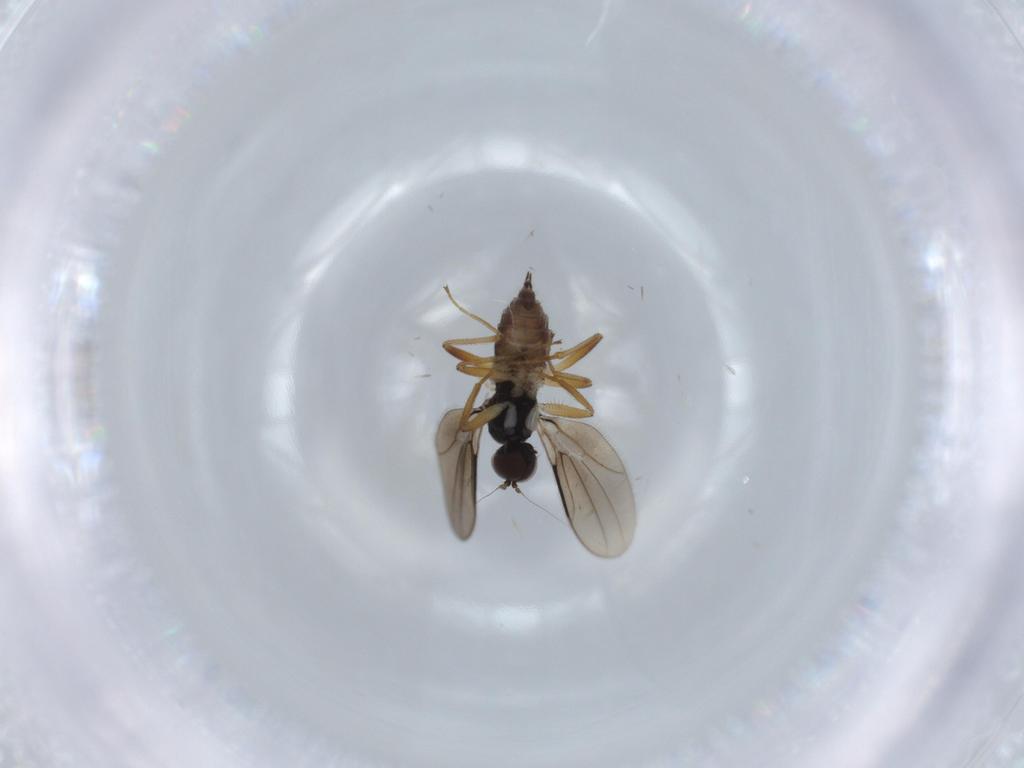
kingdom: Animalia
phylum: Arthropoda
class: Insecta
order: Diptera
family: Hybotidae
